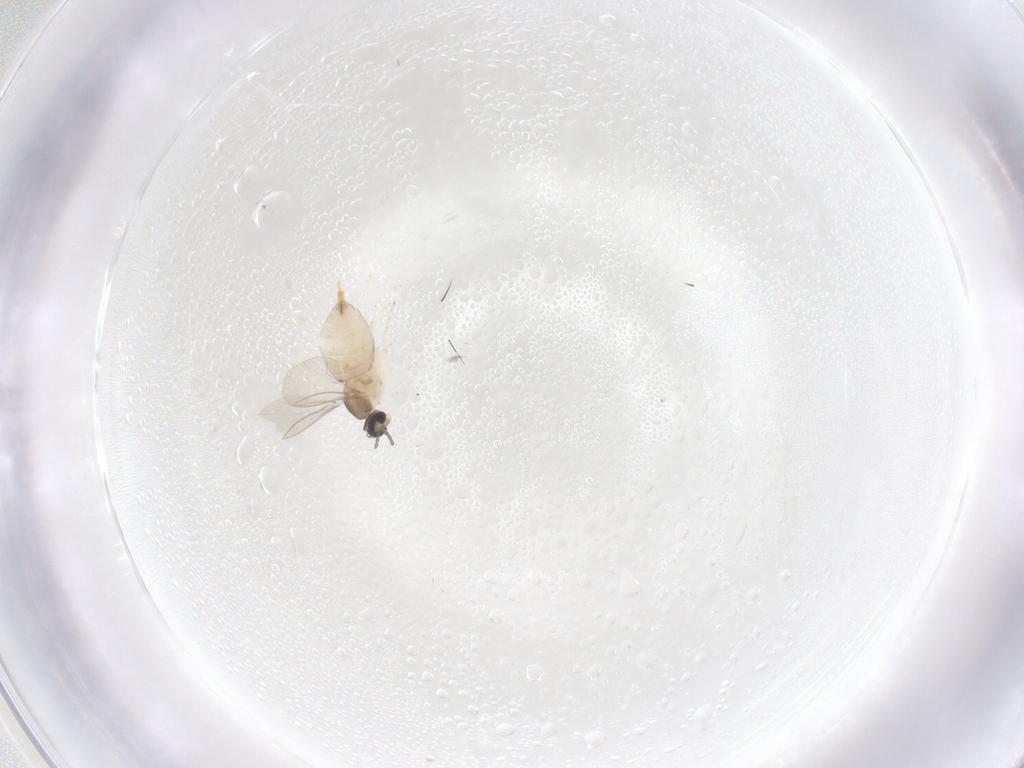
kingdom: Animalia
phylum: Arthropoda
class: Insecta
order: Diptera
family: Cecidomyiidae
